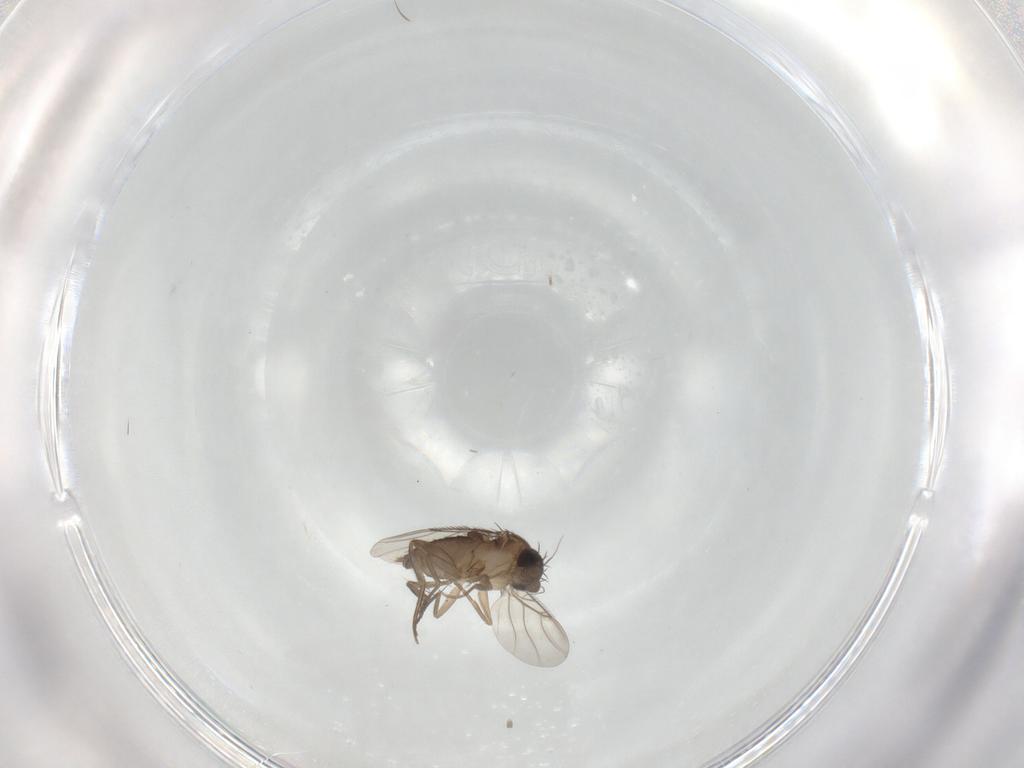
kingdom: Animalia
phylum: Arthropoda
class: Insecta
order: Diptera
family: Phoridae
